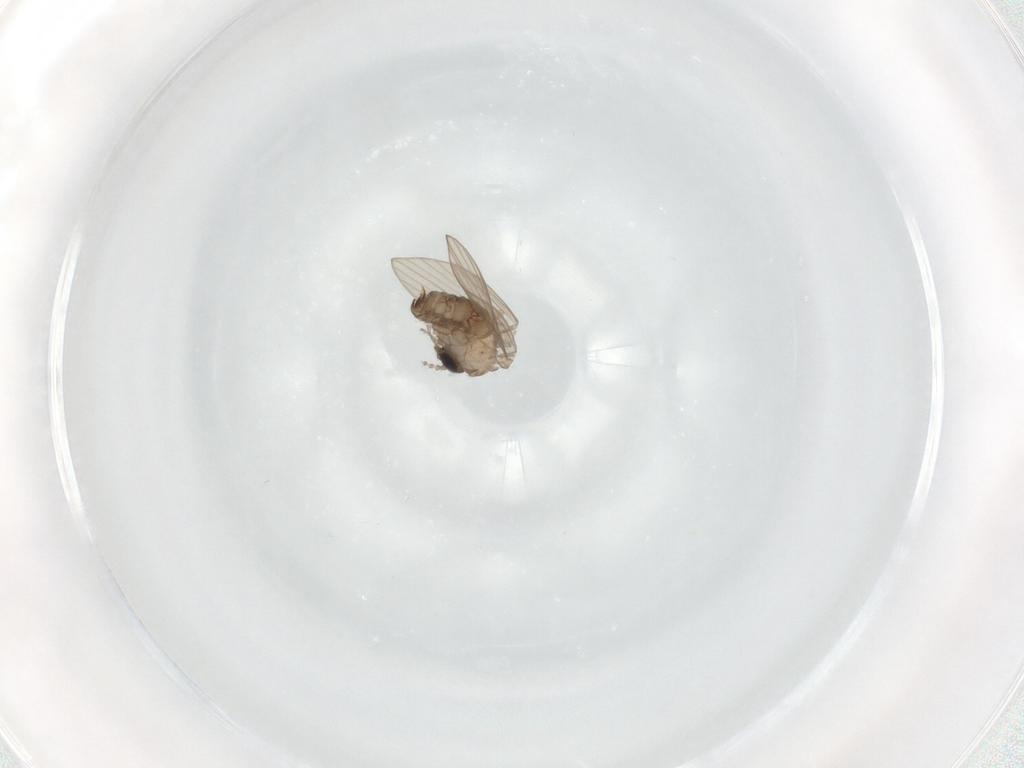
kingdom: Animalia
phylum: Arthropoda
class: Insecta
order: Diptera
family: Psychodidae
